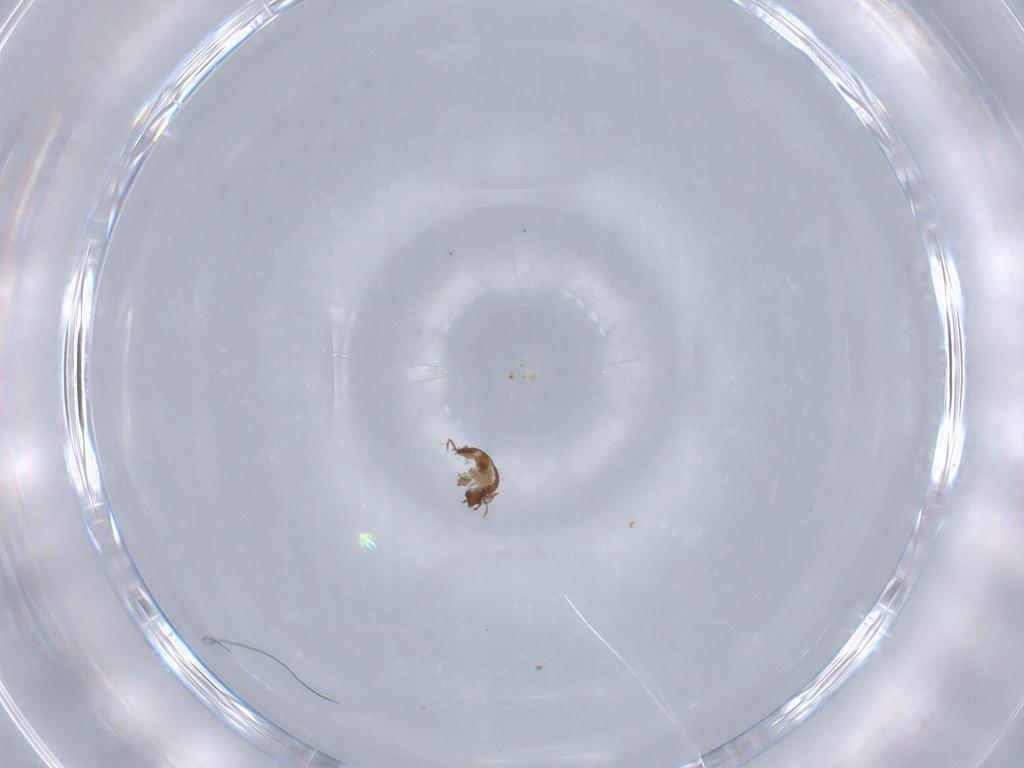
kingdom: Animalia
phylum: Arthropoda
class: Arachnida
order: Sarcoptiformes
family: Oribatulidae
